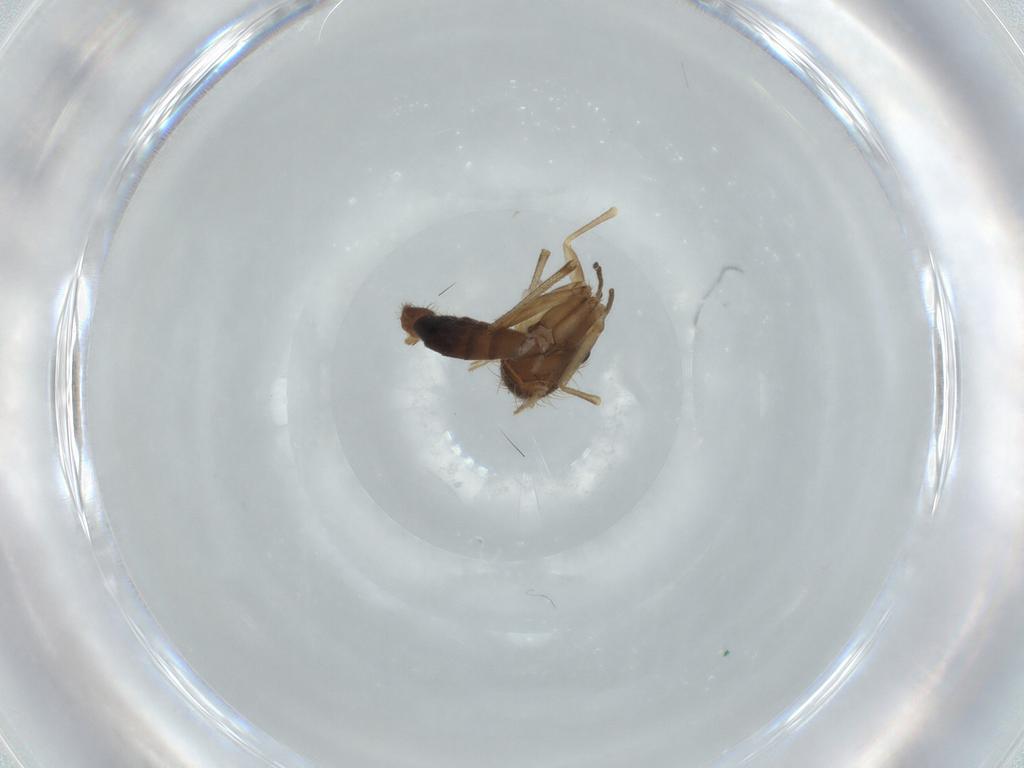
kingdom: Animalia
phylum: Arthropoda
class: Insecta
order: Diptera
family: Mycetophilidae
